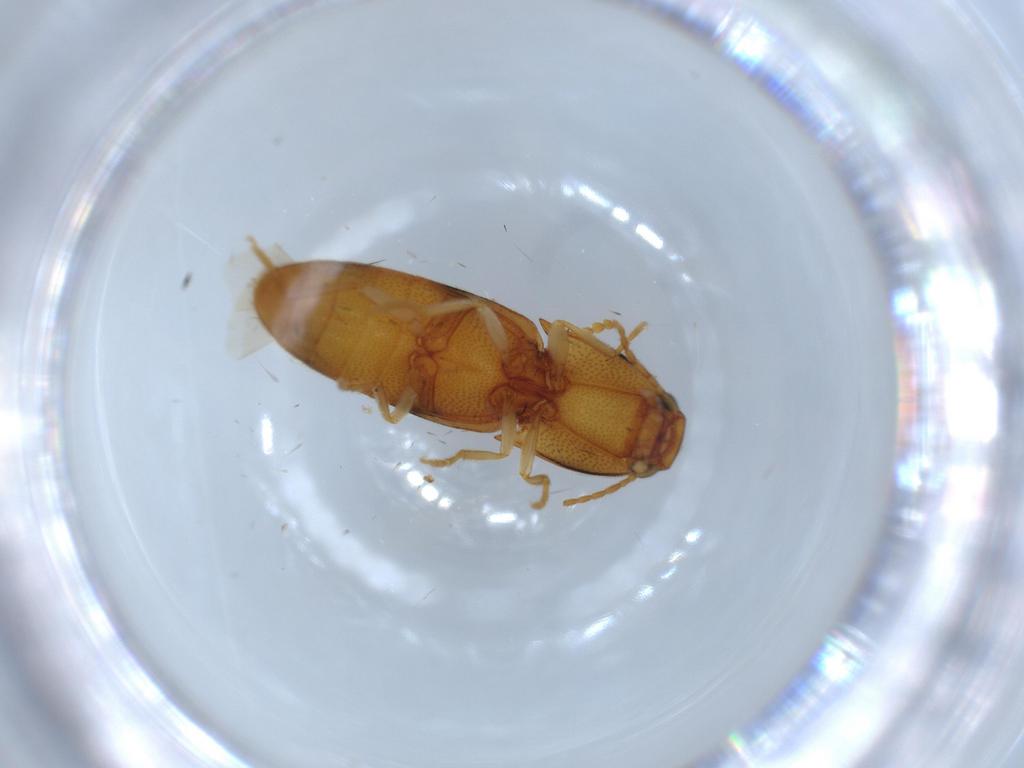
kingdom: Animalia
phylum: Arthropoda
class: Insecta
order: Coleoptera
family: Elateridae
